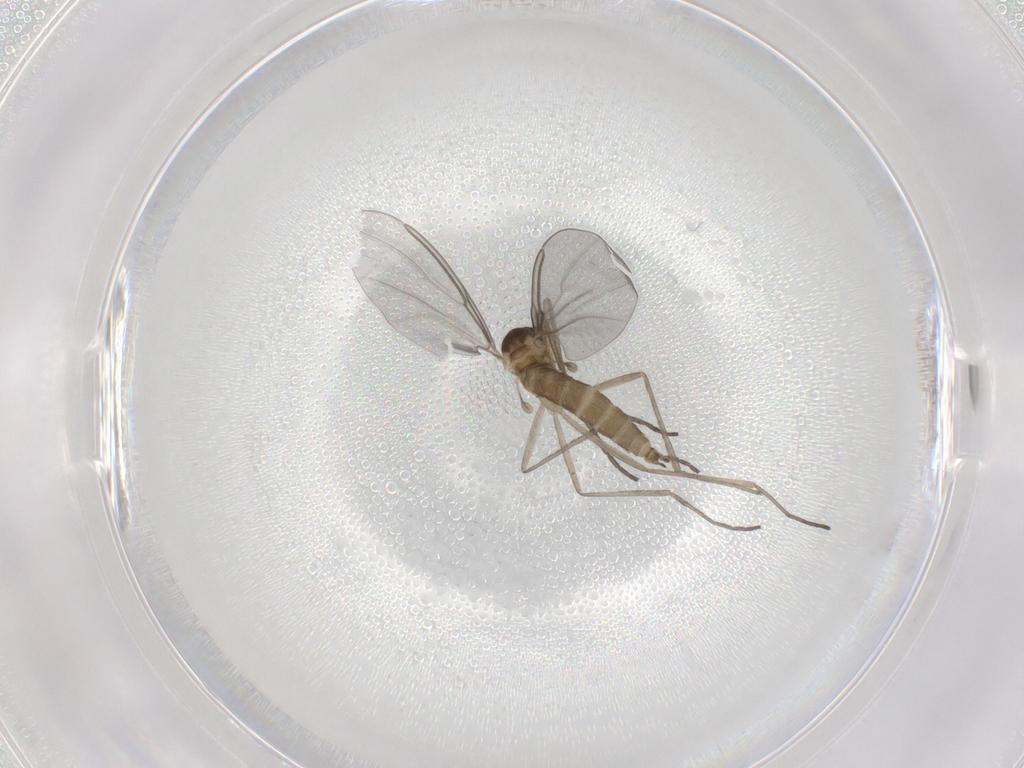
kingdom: Animalia
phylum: Arthropoda
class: Insecta
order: Diptera
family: Cecidomyiidae
